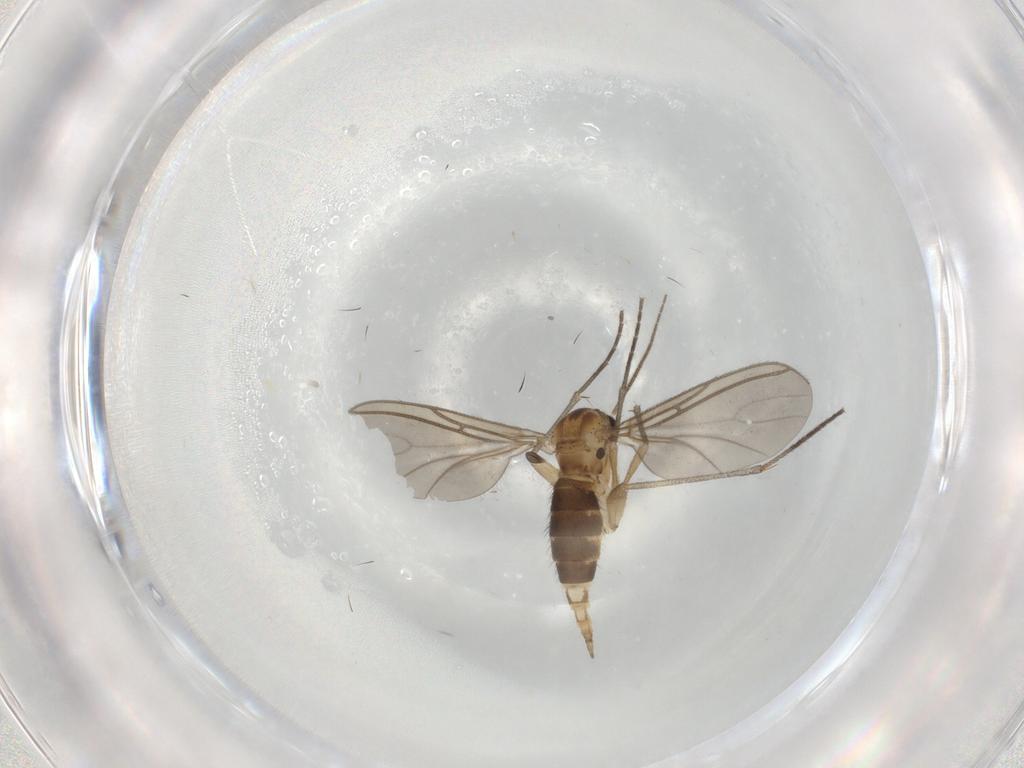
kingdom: Animalia
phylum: Arthropoda
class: Insecta
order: Diptera
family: Sciaridae
